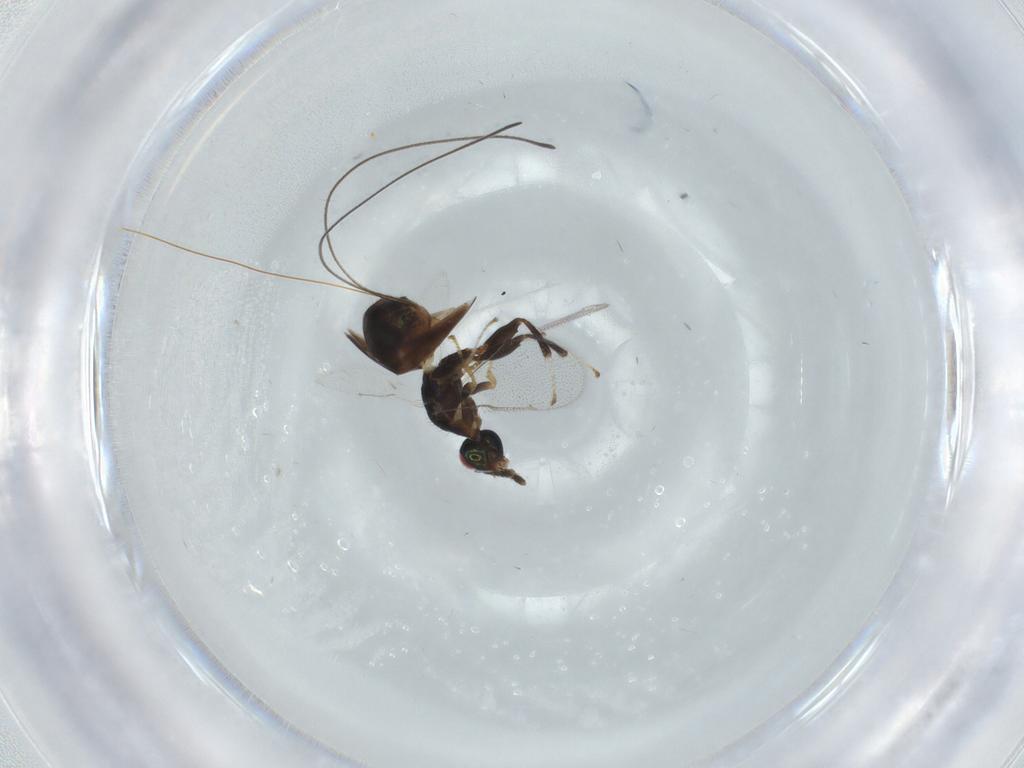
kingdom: Animalia
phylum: Arthropoda
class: Insecta
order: Hymenoptera
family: Torymidae
